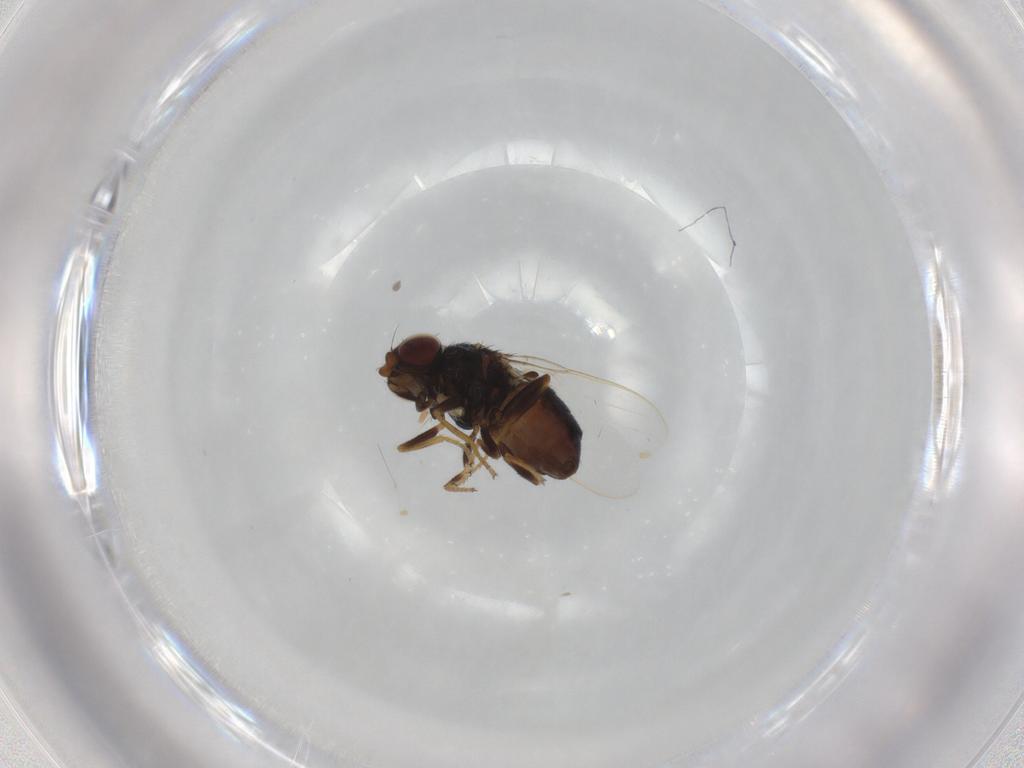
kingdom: Animalia
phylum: Arthropoda
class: Insecta
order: Diptera
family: Chloropidae
